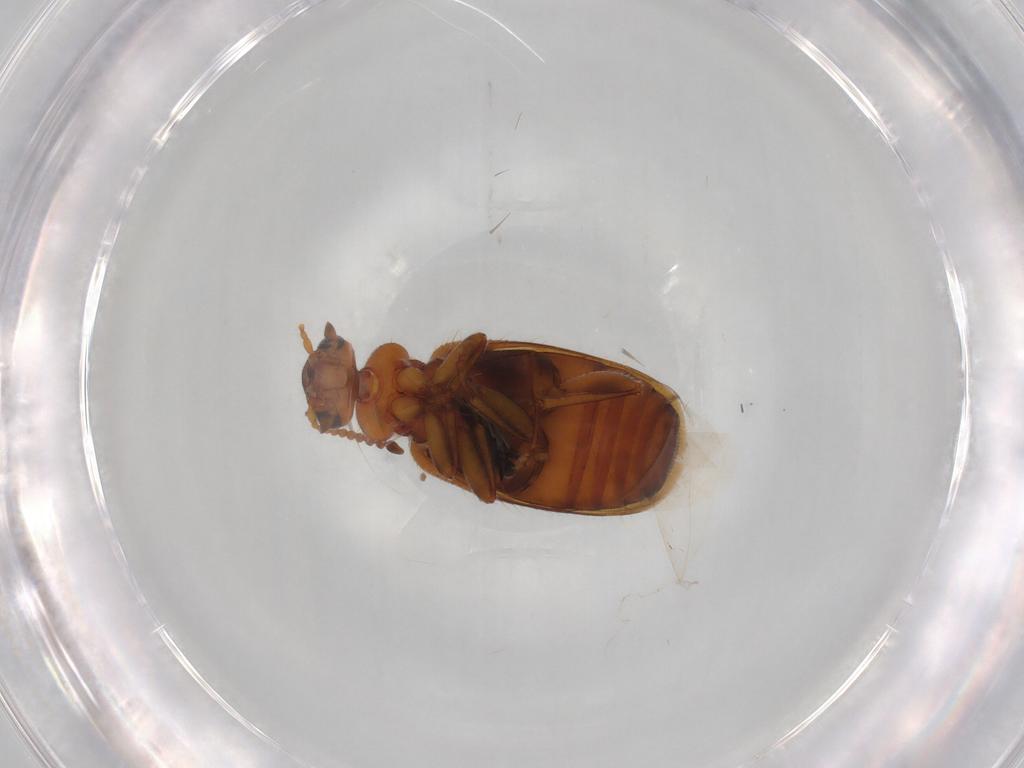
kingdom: Animalia
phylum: Arthropoda
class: Insecta
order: Coleoptera
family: Anthicidae
